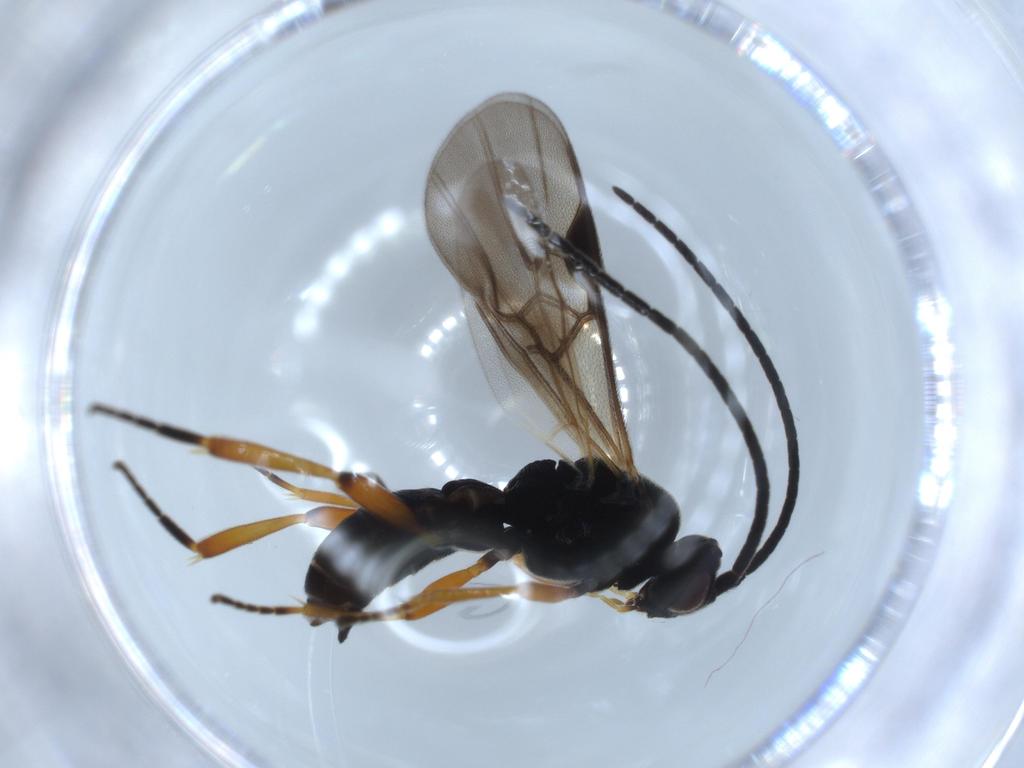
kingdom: Animalia
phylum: Arthropoda
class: Insecta
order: Hymenoptera
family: Braconidae
